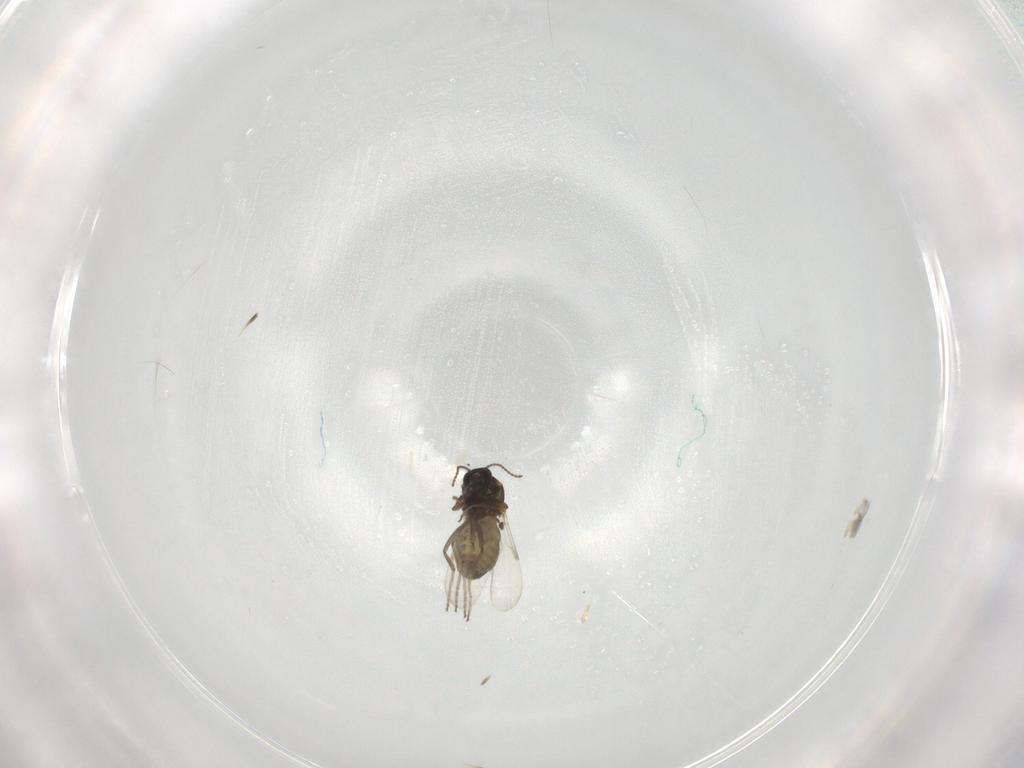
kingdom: Animalia
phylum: Arthropoda
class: Insecta
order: Diptera
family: Ceratopogonidae
